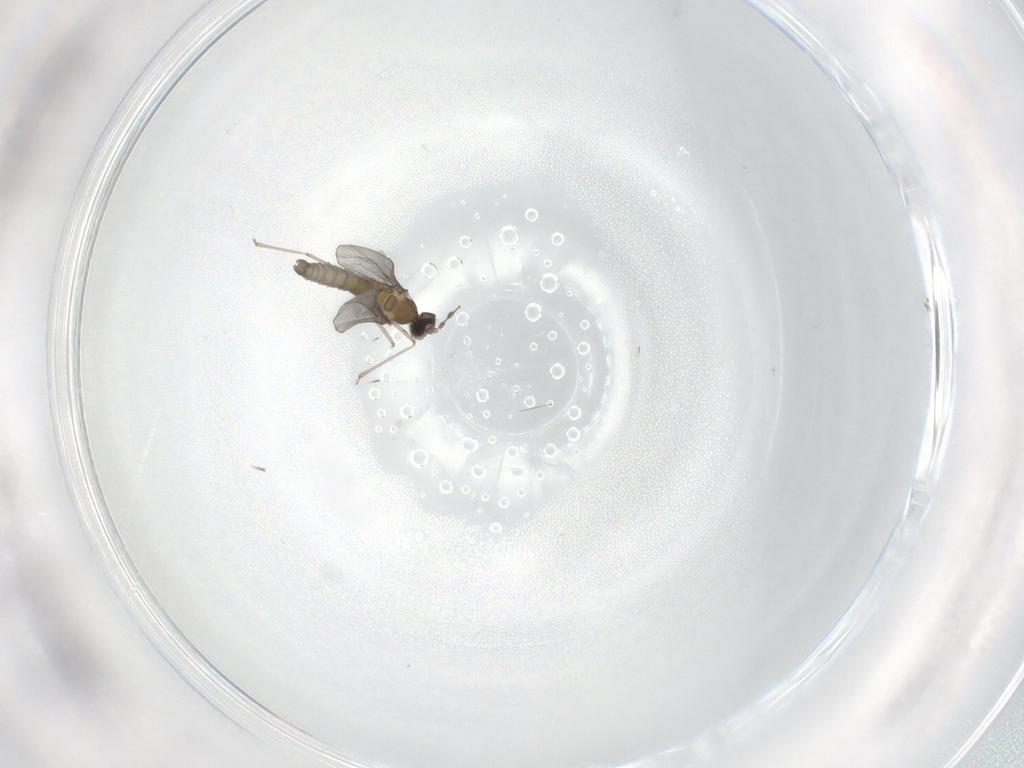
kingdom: Animalia
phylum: Arthropoda
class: Insecta
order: Diptera
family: Cecidomyiidae
